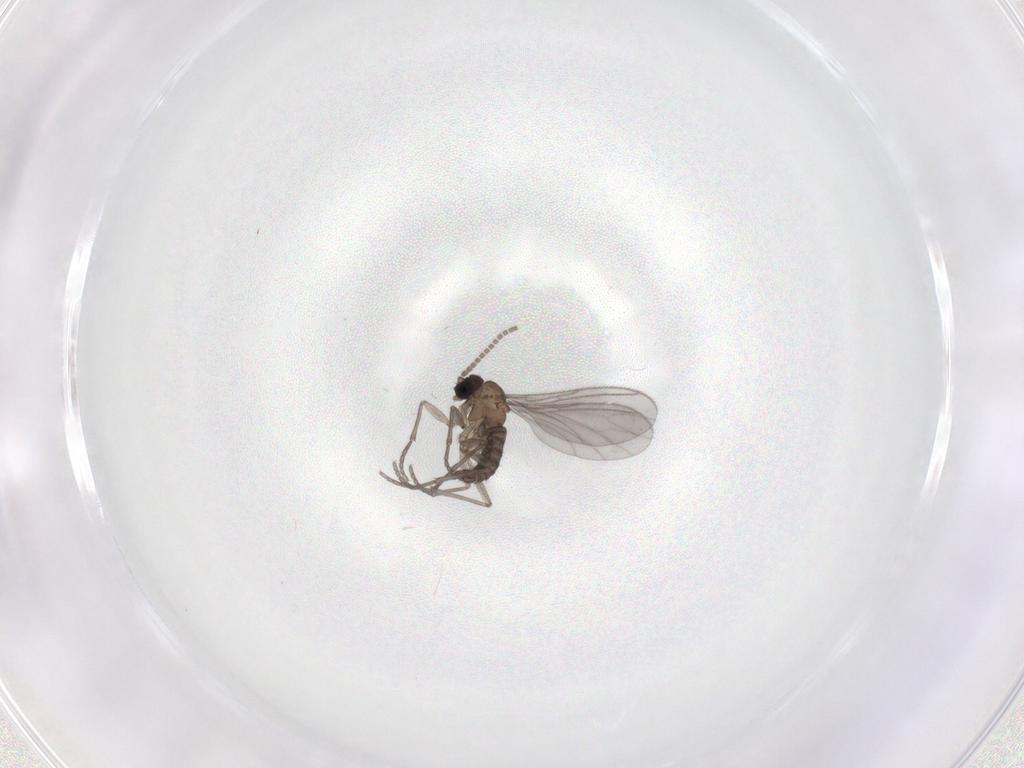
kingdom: Animalia
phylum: Arthropoda
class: Insecta
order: Diptera
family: Sciaridae
